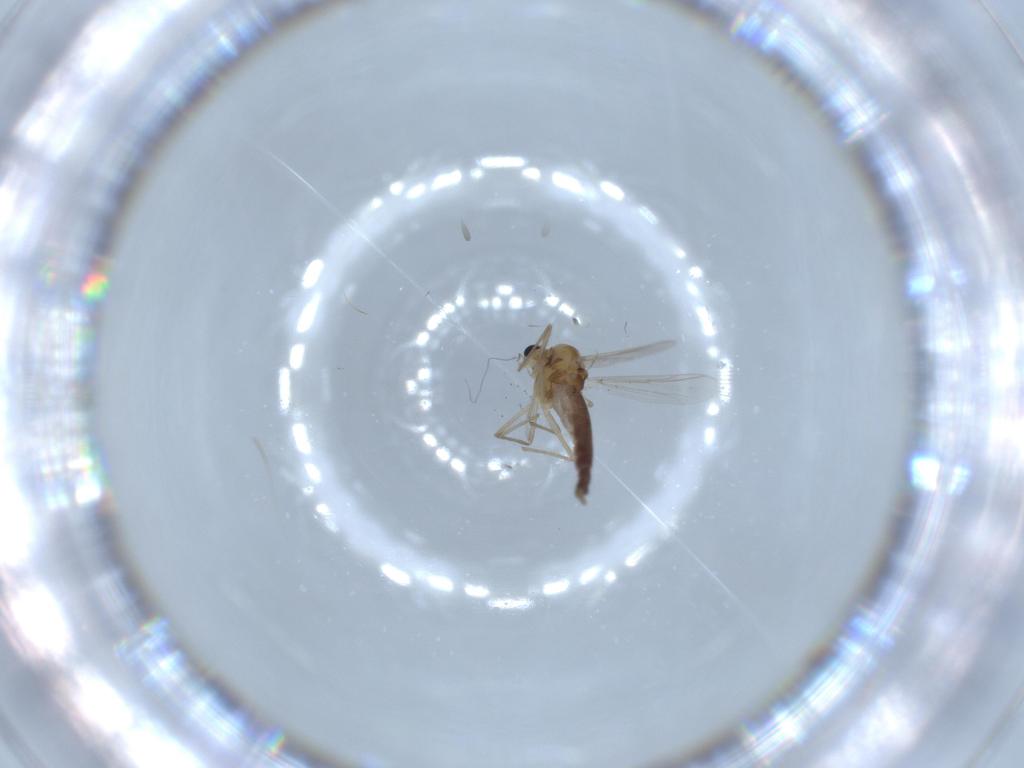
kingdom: Animalia
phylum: Arthropoda
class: Insecta
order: Diptera
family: Chironomidae
